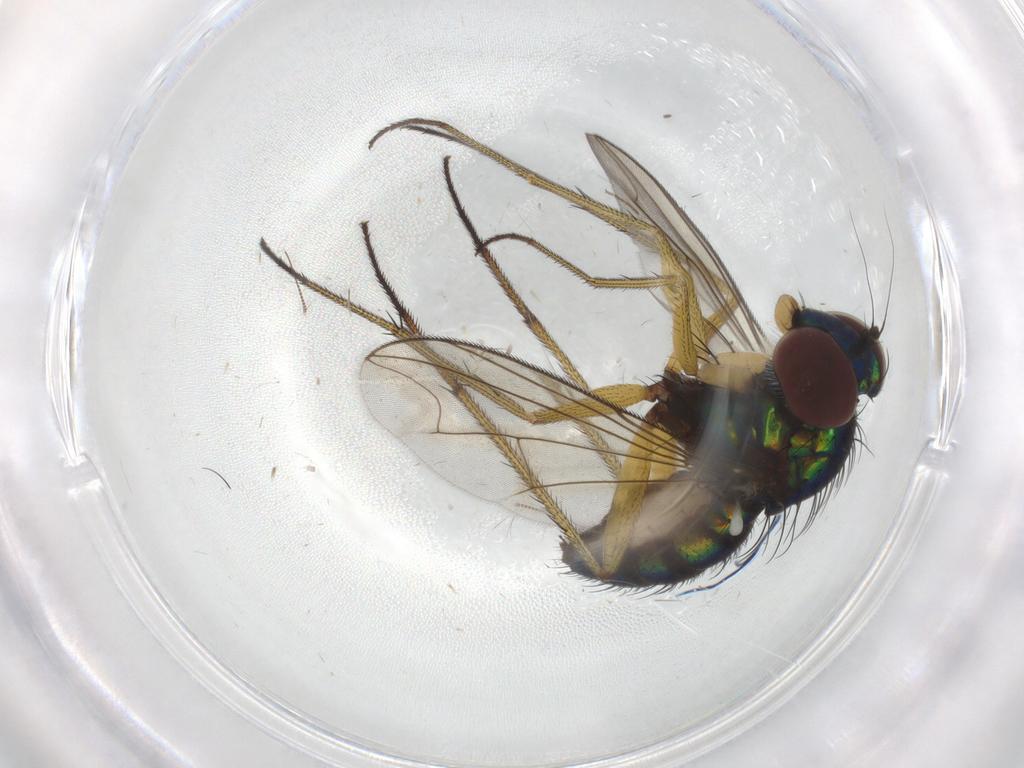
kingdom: Animalia
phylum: Arthropoda
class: Insecta
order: Diptera
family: Dolichopodidae
